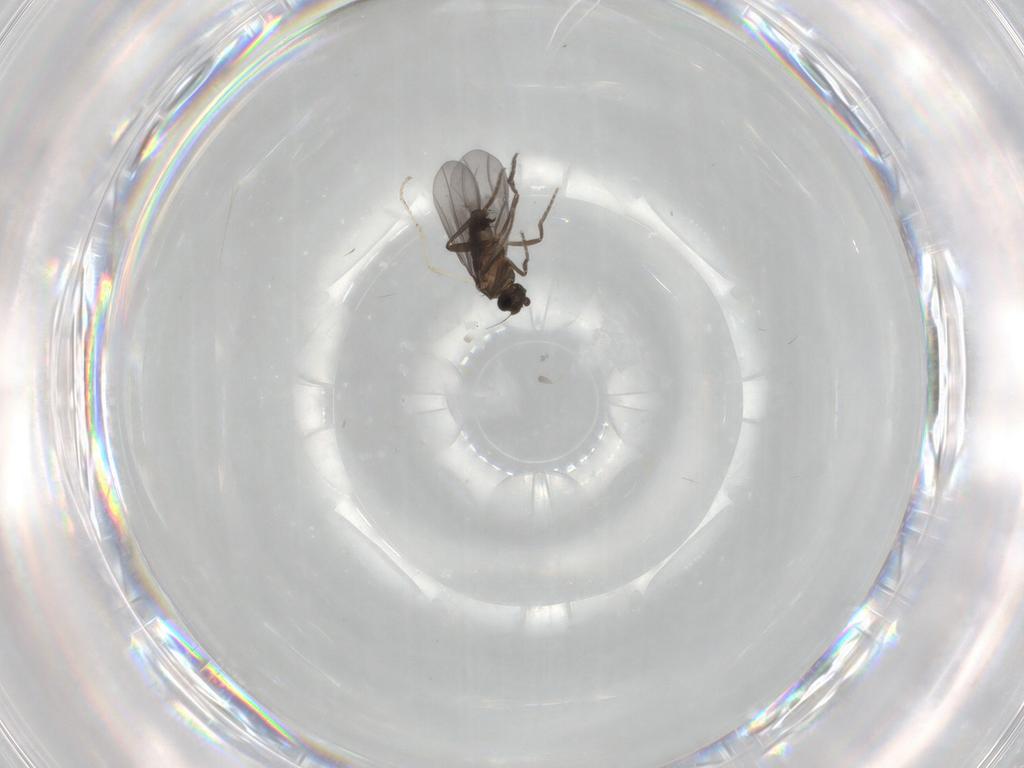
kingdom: Animalia
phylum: Arthropoda
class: Insecta
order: Diptera
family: Phoridae
